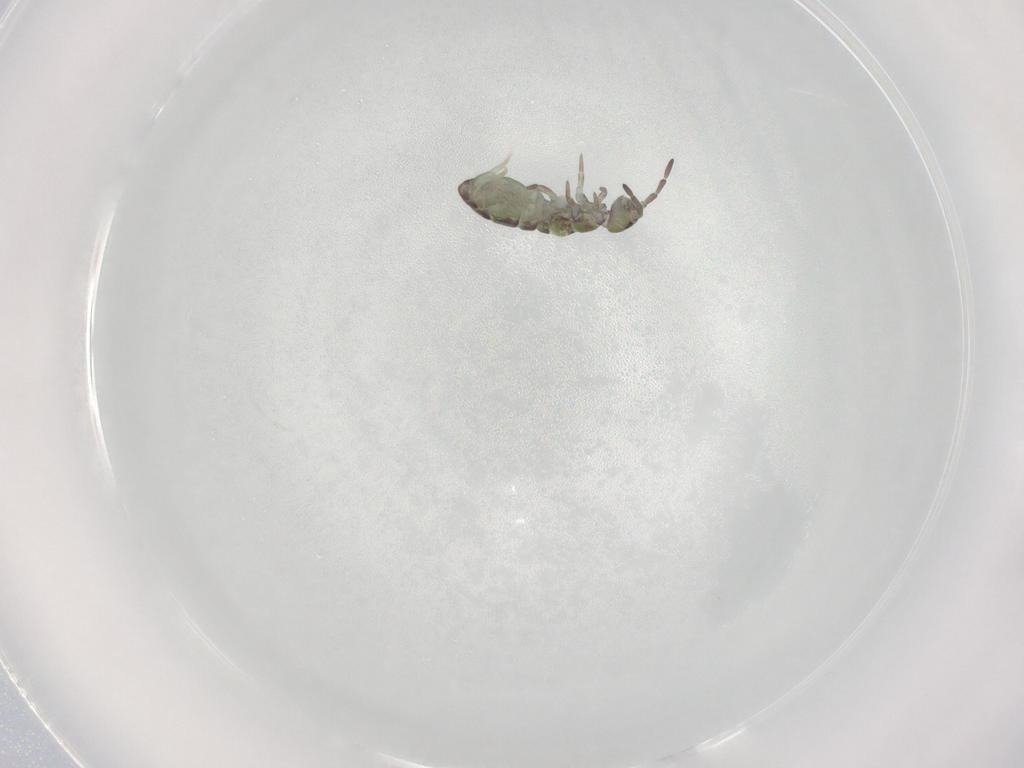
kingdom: Animalia
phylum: Arthropoda
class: Collembola
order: Entomobryomorpha
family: Isotomidae
